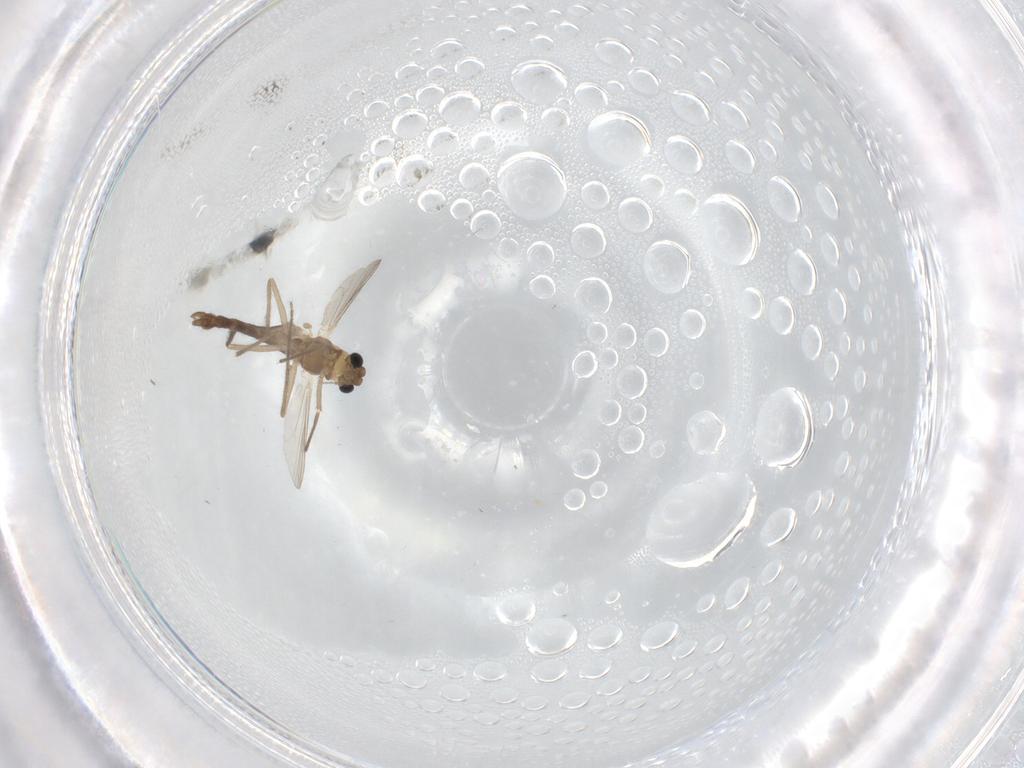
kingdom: Animalia
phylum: Arthropoda
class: Insecta
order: Diptera
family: Chironomidae
